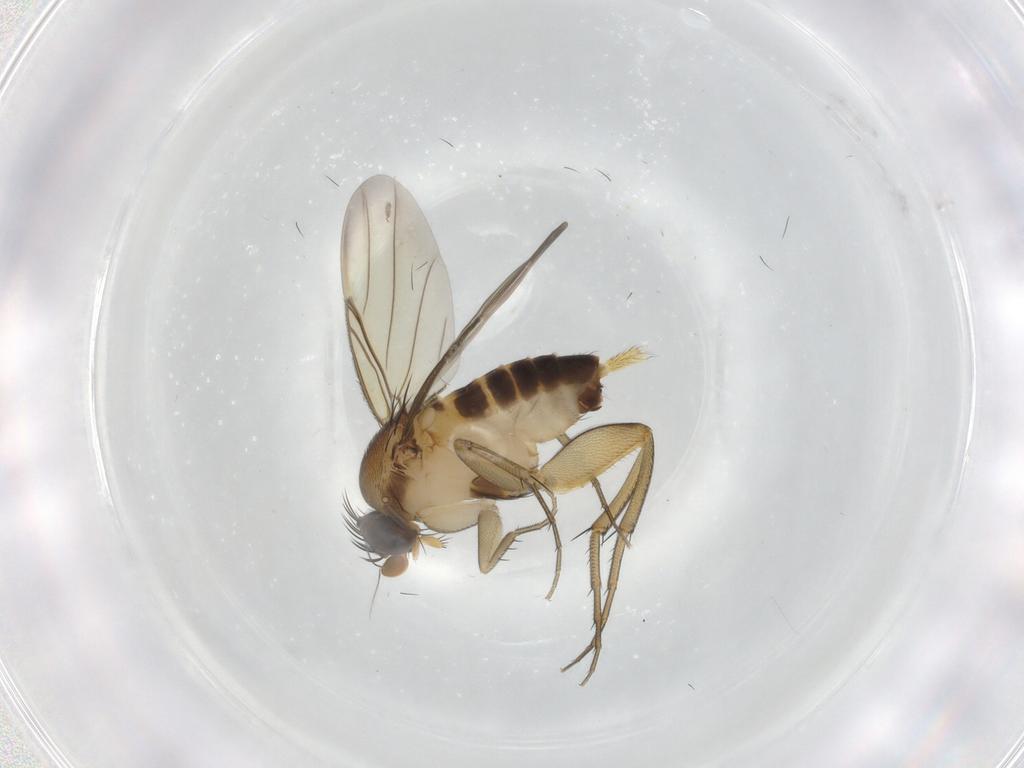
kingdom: Animalia
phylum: Arthropoda
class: Insecta
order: Diptera
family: Phoridae
